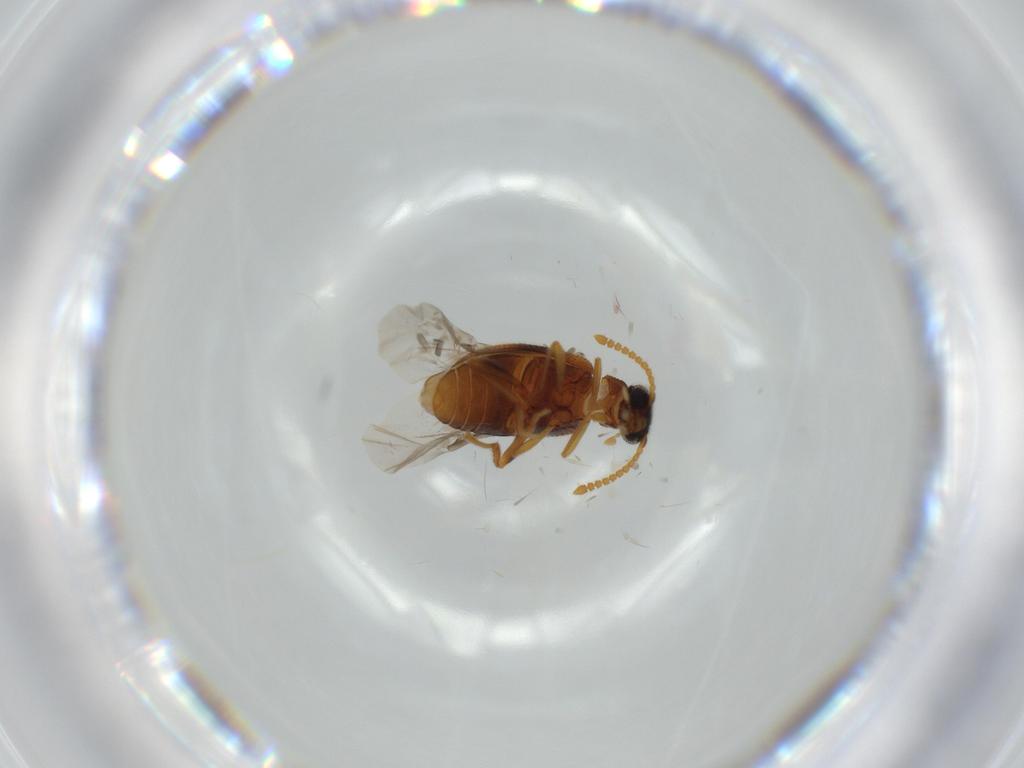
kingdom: Animalia
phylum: Arthropoda
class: Insecta
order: Coleoptera
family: Aderidae
